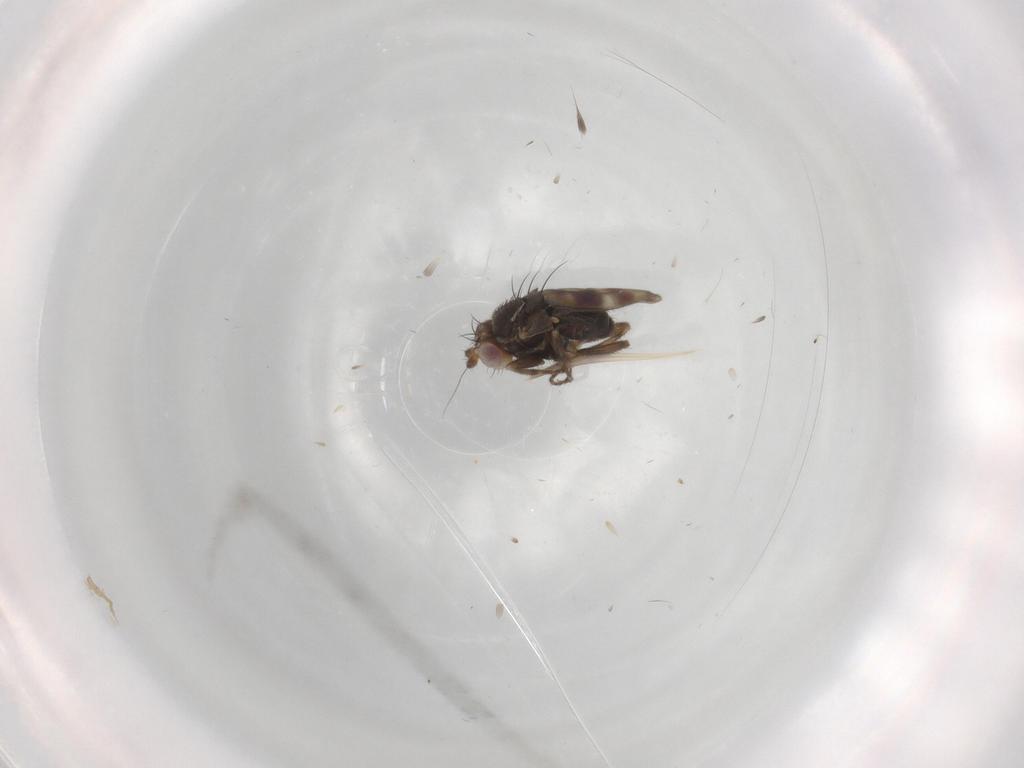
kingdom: Animalia
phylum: Arthropoda
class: Insecta
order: Diptera
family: Sphaeroceridae
